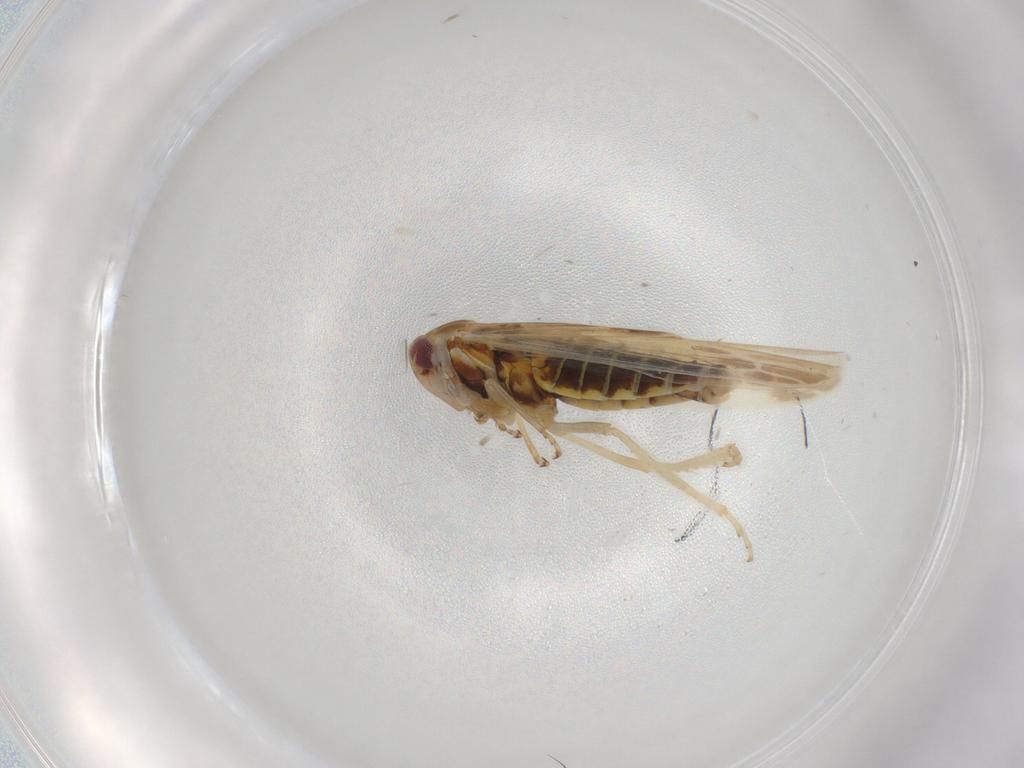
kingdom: Animalia
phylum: Arthropoda
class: Insecta
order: Hemiptera
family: Cicadellidae
